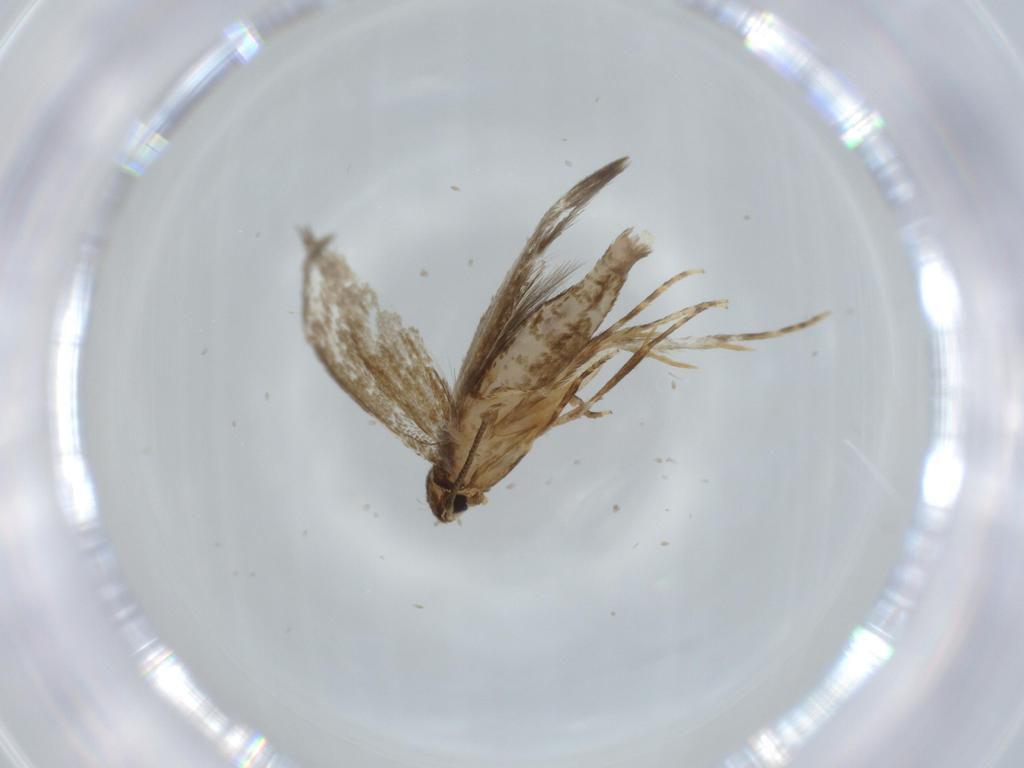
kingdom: Animalia
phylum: Arthropoda
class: Insecta
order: Lepidoptera
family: Tineidae
